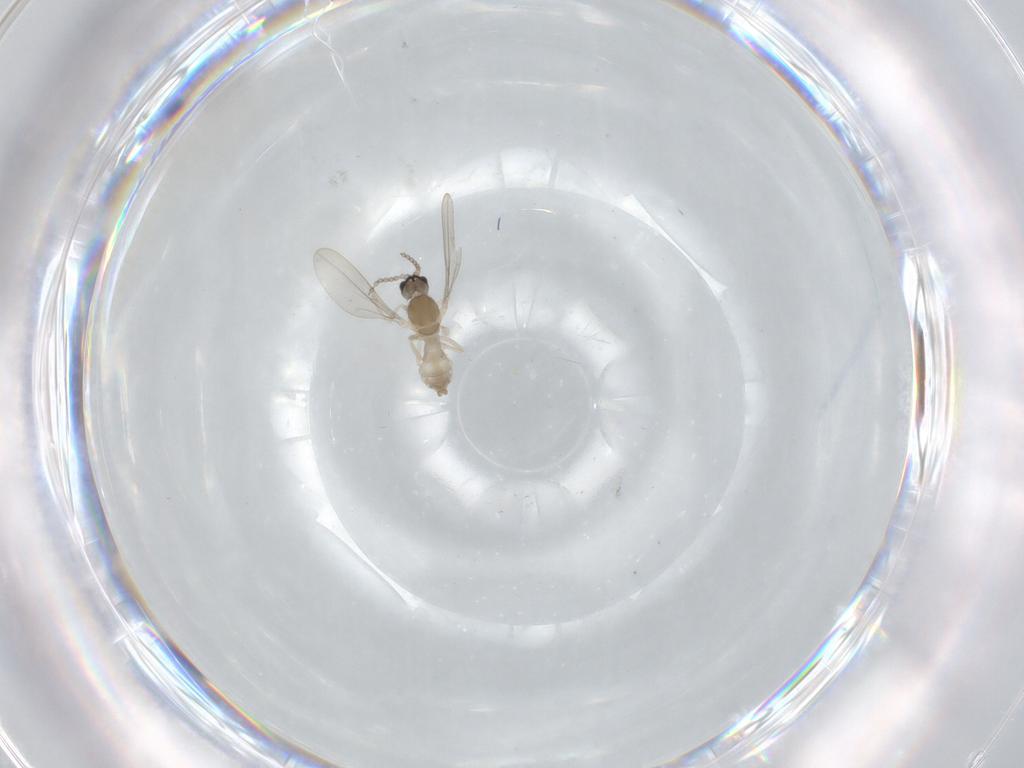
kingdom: Animalia
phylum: Arthropoda
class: Insecta
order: Diptera
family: Cecidomyiidae
